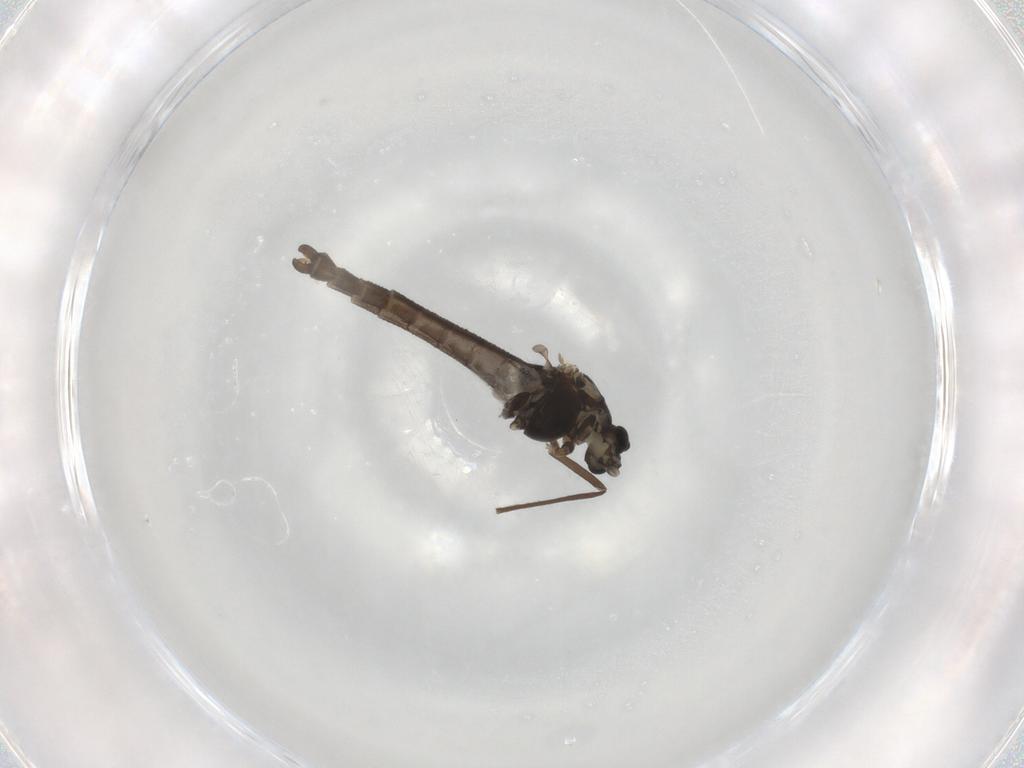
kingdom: Animalia
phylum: Arthropoda
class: Insecta
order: Diptera
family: Chironomidae
